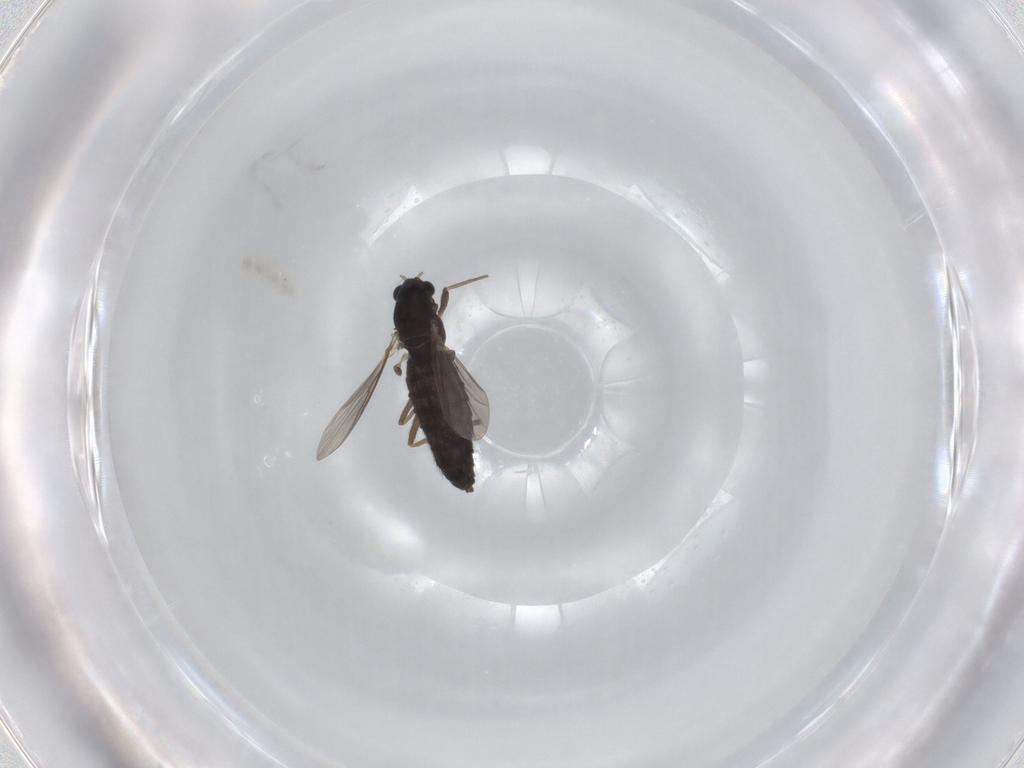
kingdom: Animalia
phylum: Arthropoda
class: Insecta
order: Diptera
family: Chironomidae
